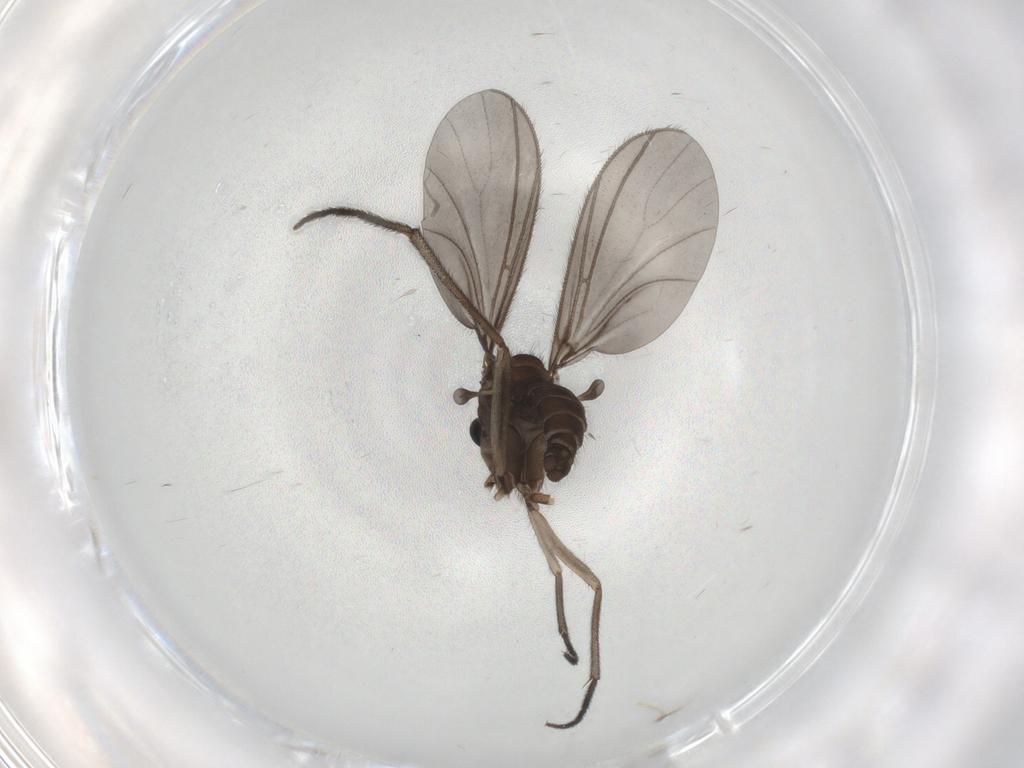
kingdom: Animalia
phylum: Arthropoda
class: Insecta
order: Diptera
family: Sciaridae
